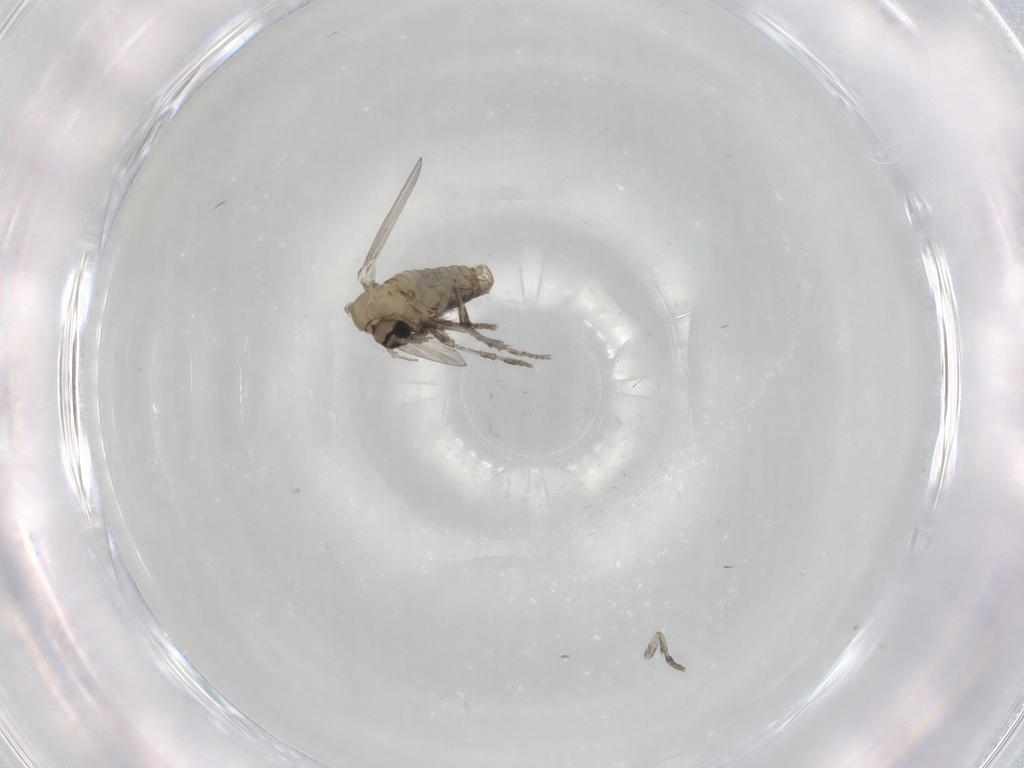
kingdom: Animalia
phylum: Arthropoda
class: Insecta
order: Diptera
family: Psychodidae
